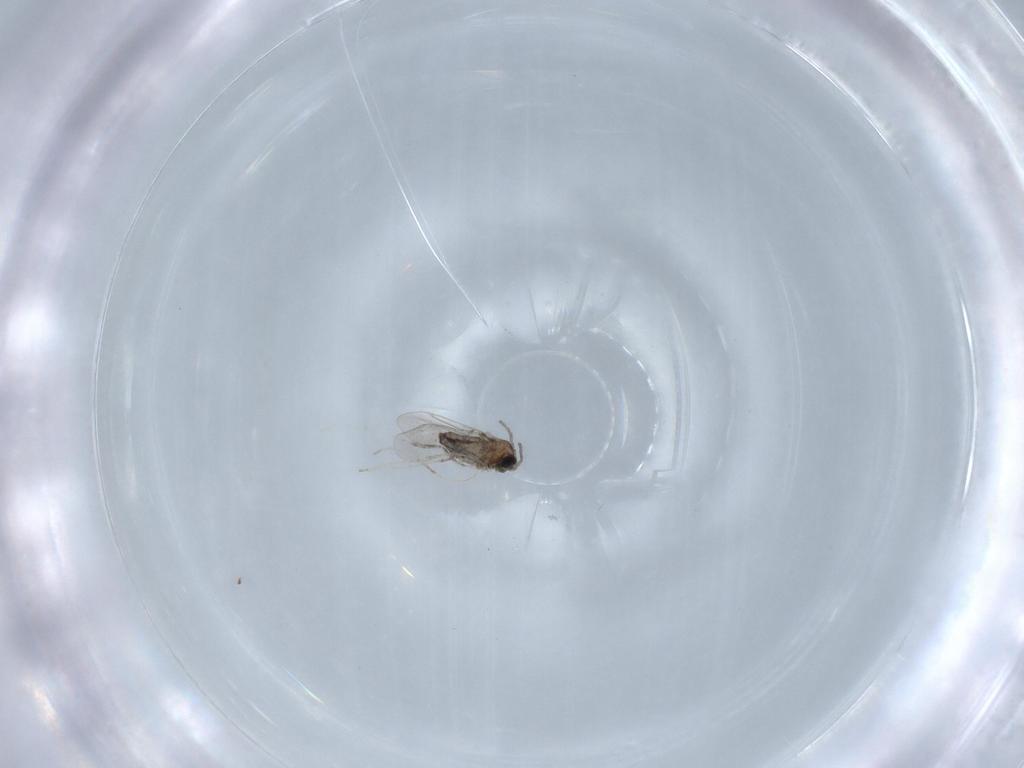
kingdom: Animalia
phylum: Arthropoda
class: Insecta
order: Diptera
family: Cecidomyiidae
